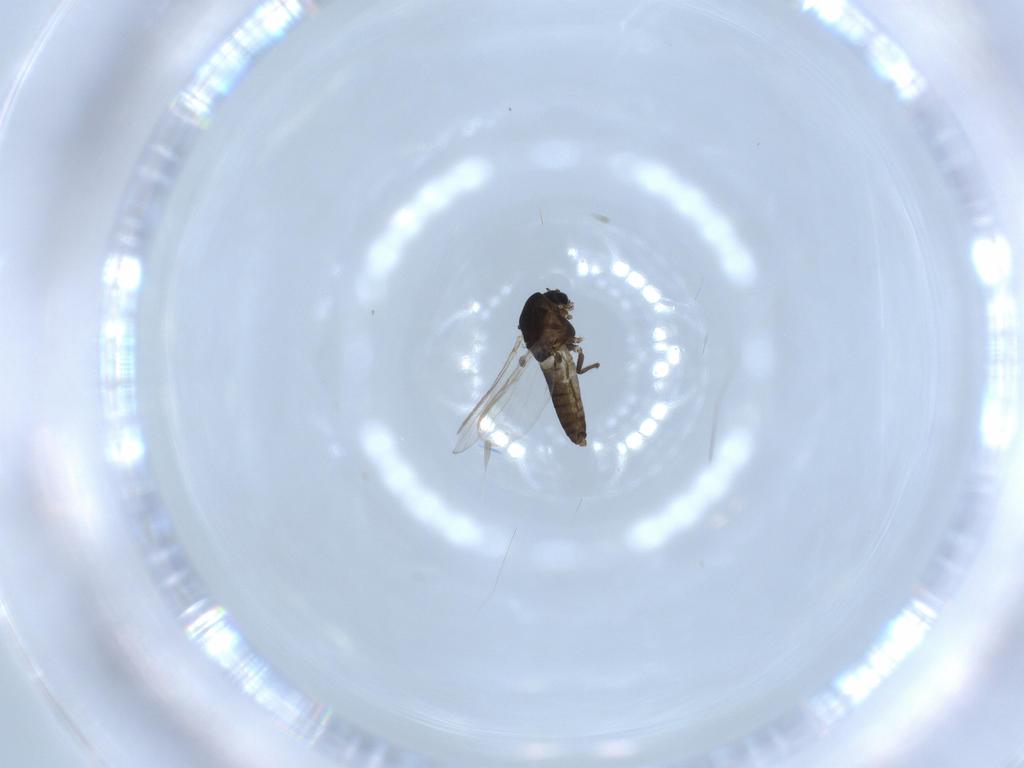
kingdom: Animalia
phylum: Arthropoda
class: Insecta
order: Diptera
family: Chironomidae
